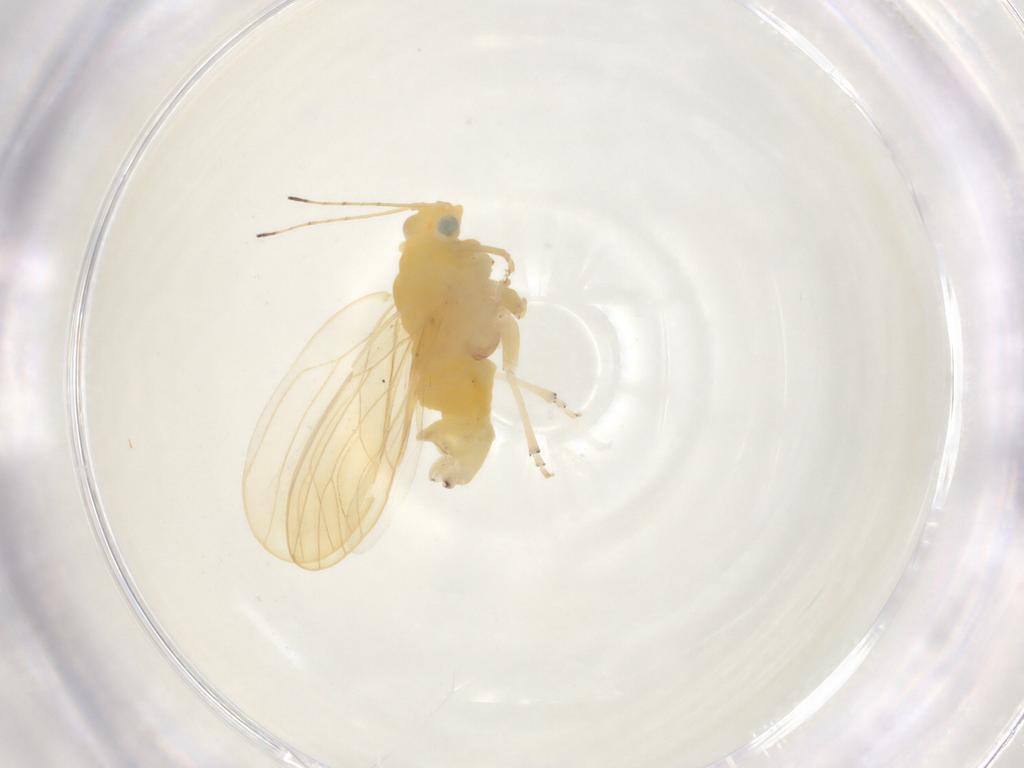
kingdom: Animalia
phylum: Arthropoda
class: Insecta
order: Hemiptera
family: Liviidae
